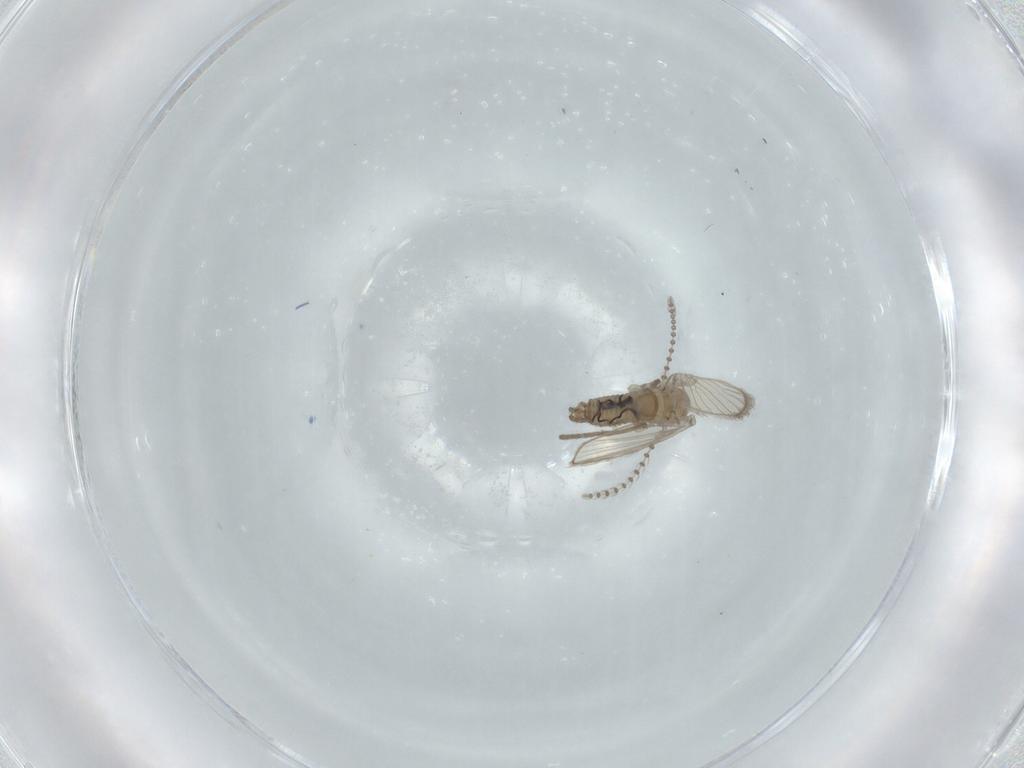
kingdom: Animalia
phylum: Arthropoda
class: Insecta
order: Diptera
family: Psychodidae
